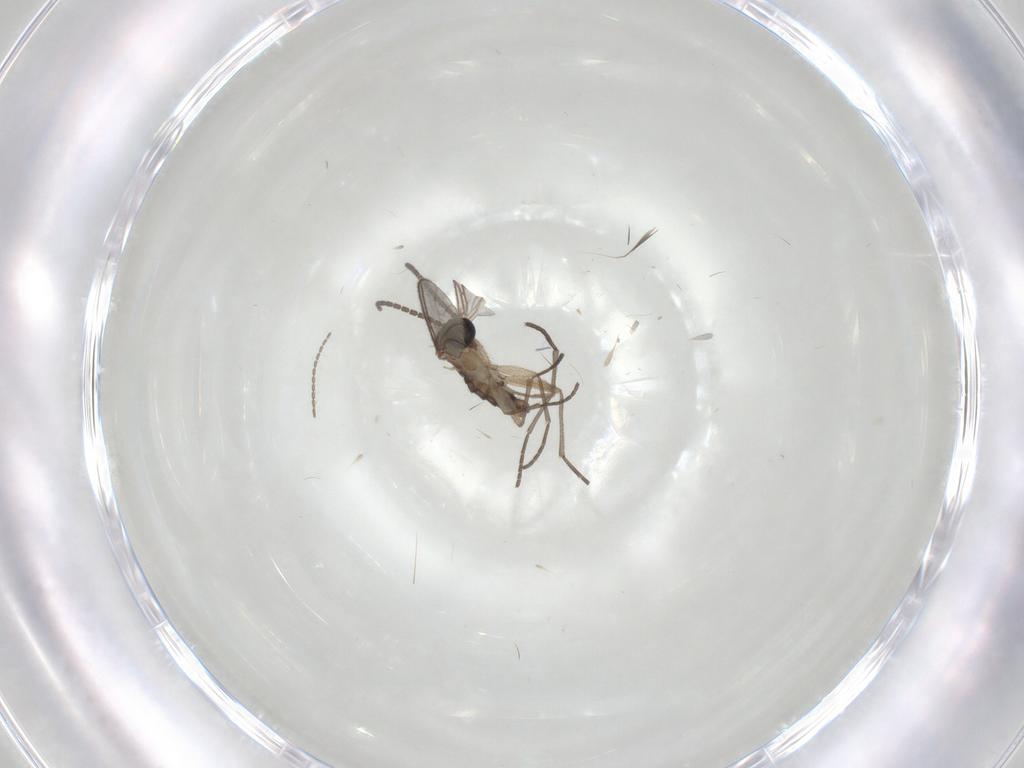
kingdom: Animalia
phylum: Arthropoda
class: Insecta
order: Diptera
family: Sciaridae
